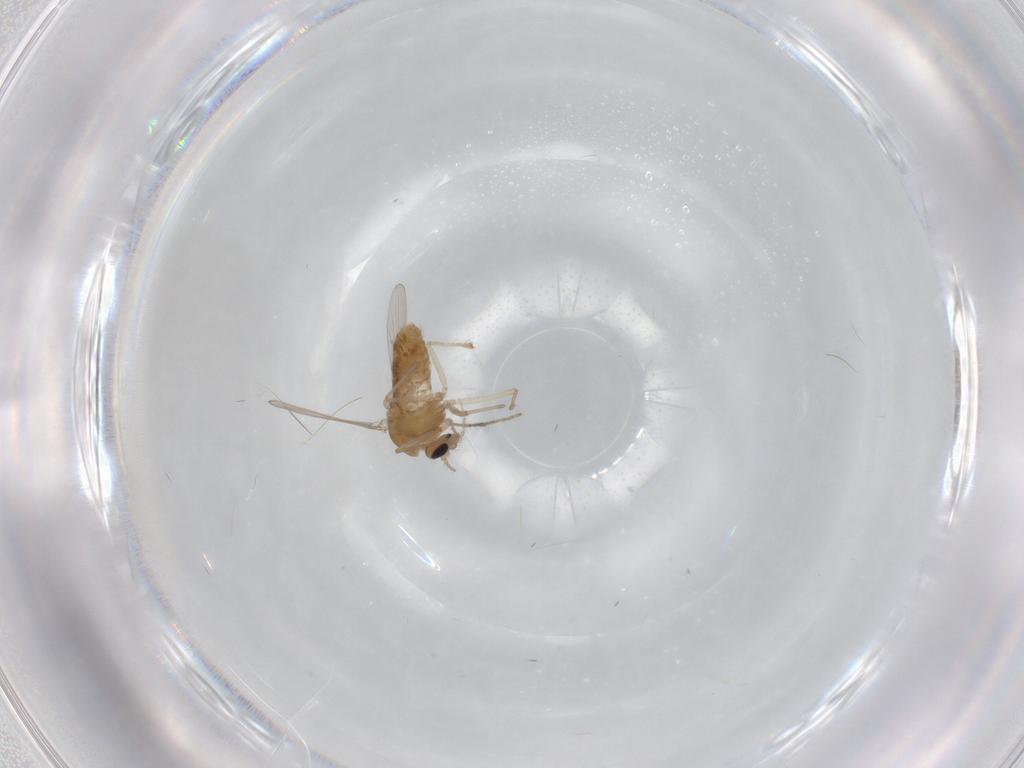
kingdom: Animalia
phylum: Arthropoda
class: Insecta
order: Diptera
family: Chironomidae
